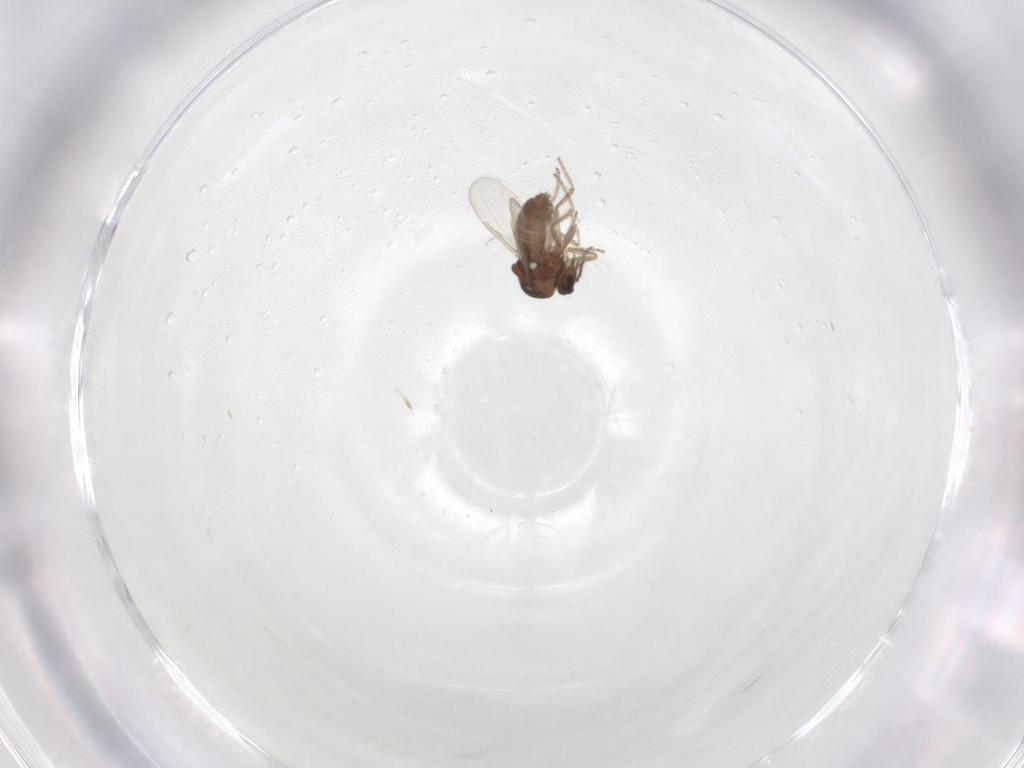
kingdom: Animalia
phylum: Arthropoda
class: Insecta
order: Diptera
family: Ceratopogonidae
